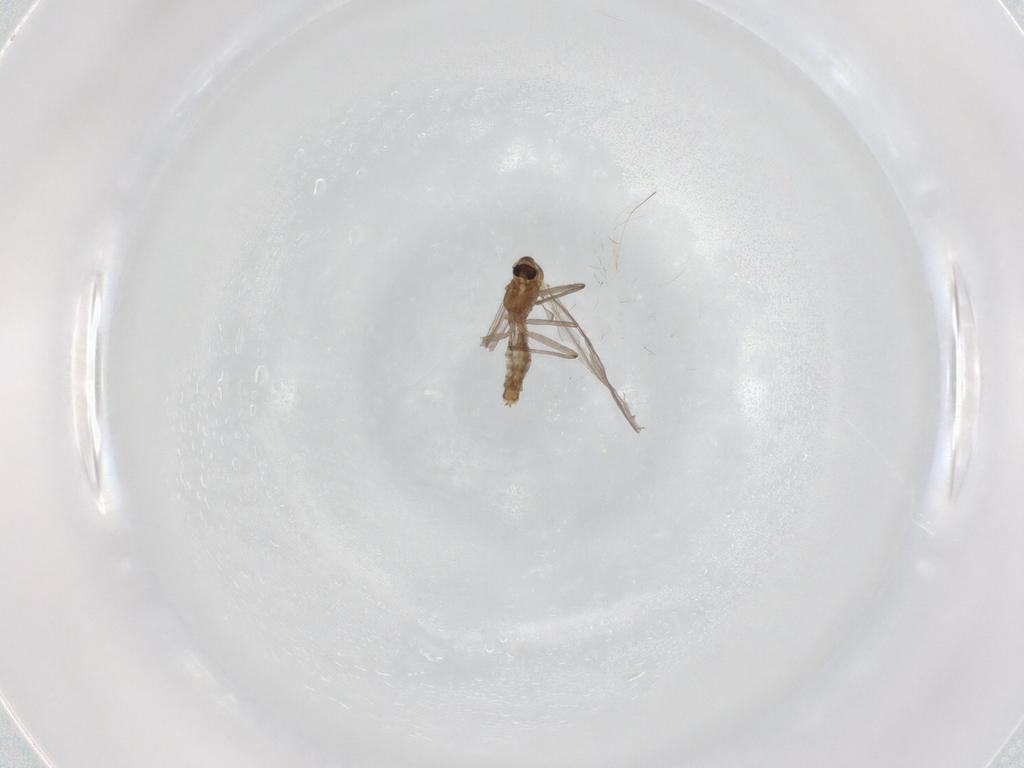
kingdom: Animalia
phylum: Arthropoda
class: Insecta
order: Diptera
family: Chironomidae
